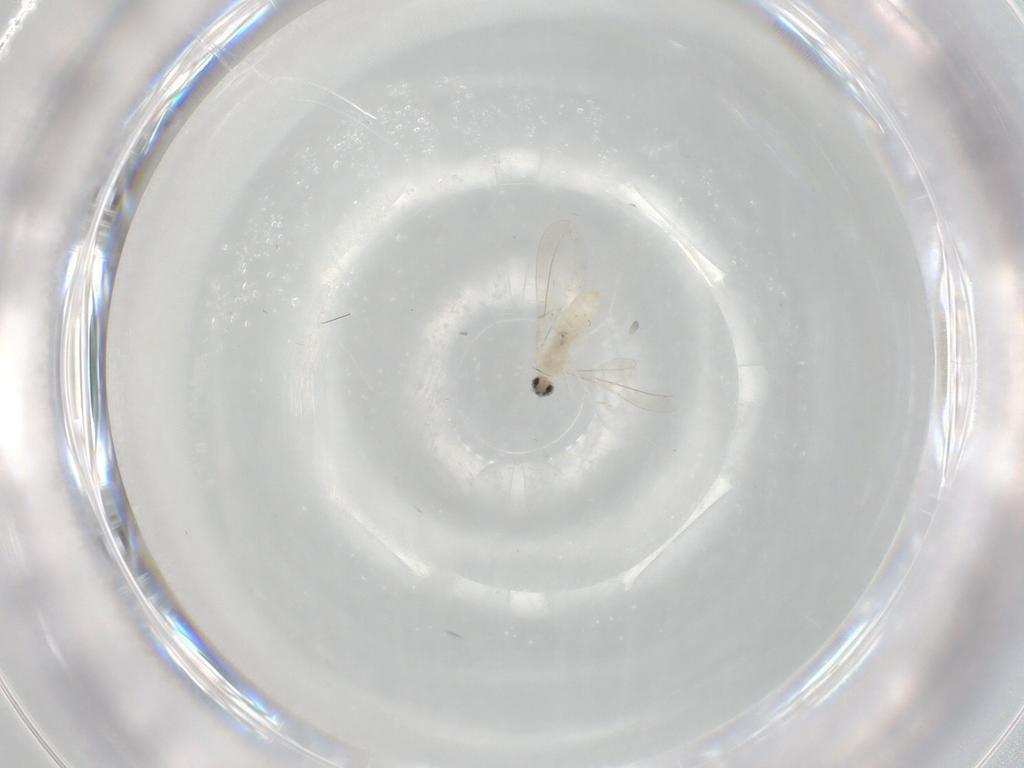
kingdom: Animalia
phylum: Arthropoda
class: Insecta
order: Diptera
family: Cecidomyiidae
